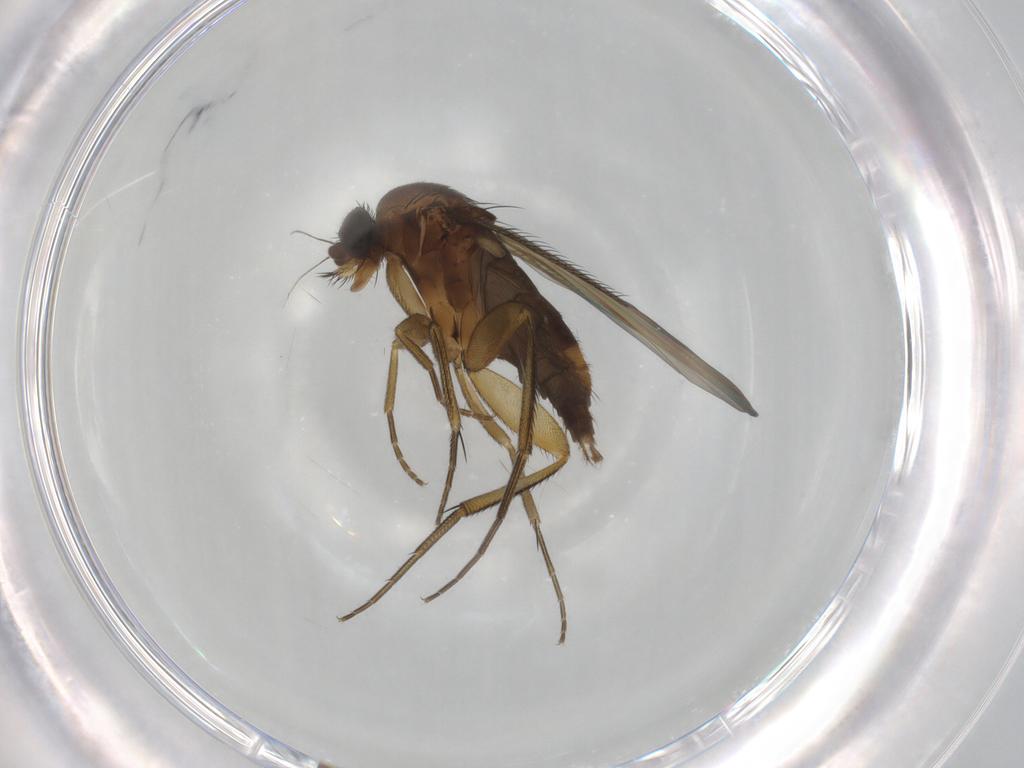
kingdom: Animalia
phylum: Arthropoda
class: Insecta
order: Diptera
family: Phoridae
